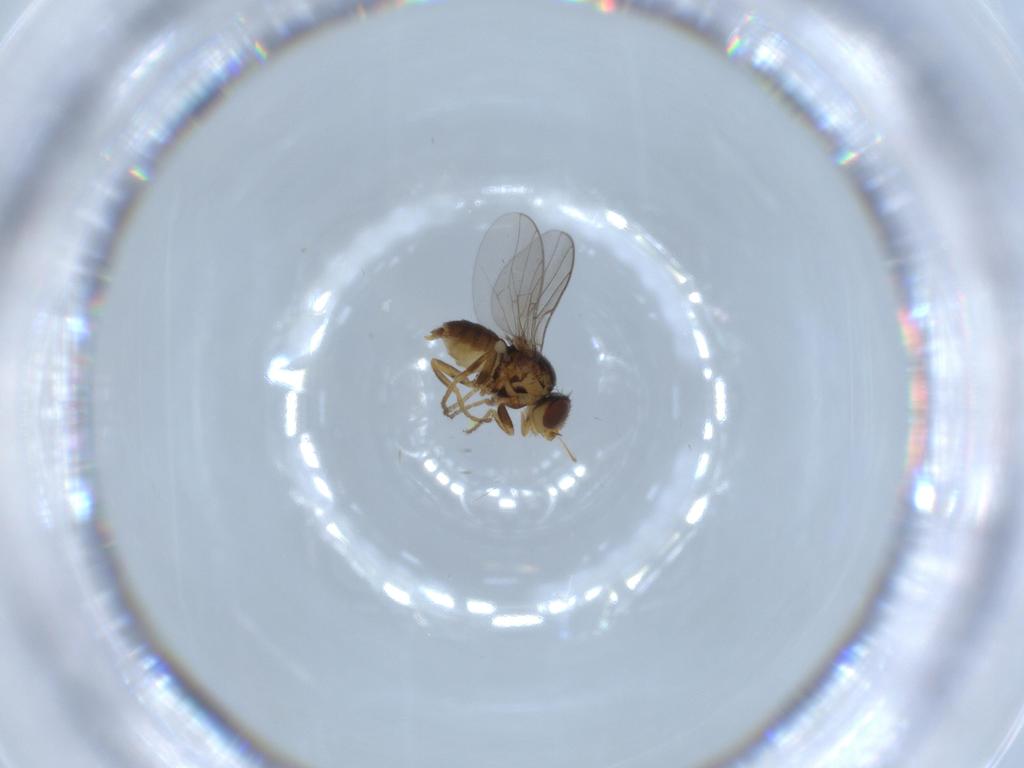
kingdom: Animalia
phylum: Arthropoda
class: Insecta
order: Diptera
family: Chloropidae
